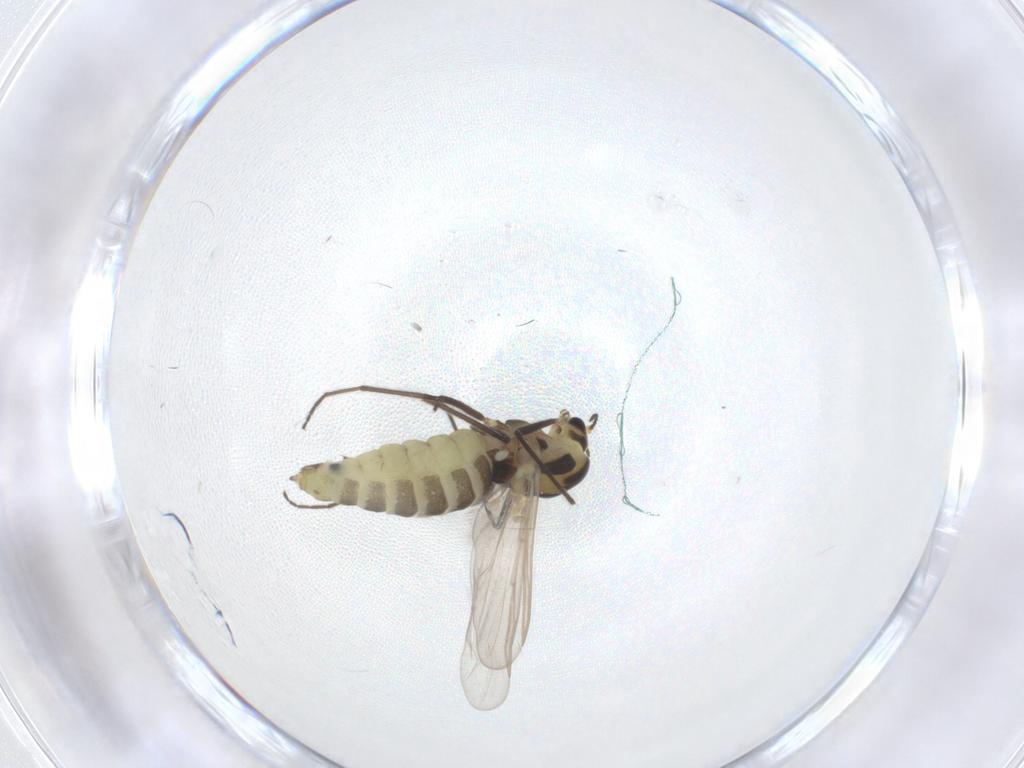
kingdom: Animalia
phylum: Arthropoda
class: Insecta
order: Diptera
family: Chironomidae
